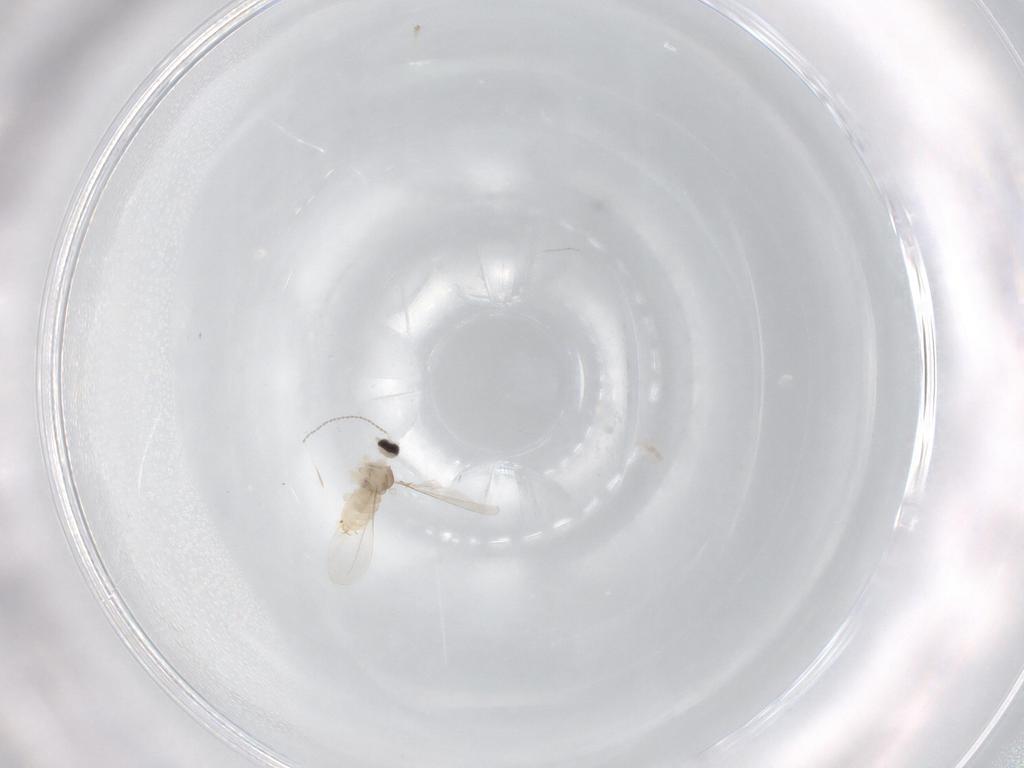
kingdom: Animalia
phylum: Arthropoda
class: Insecta
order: Diptera
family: Sciaridae
